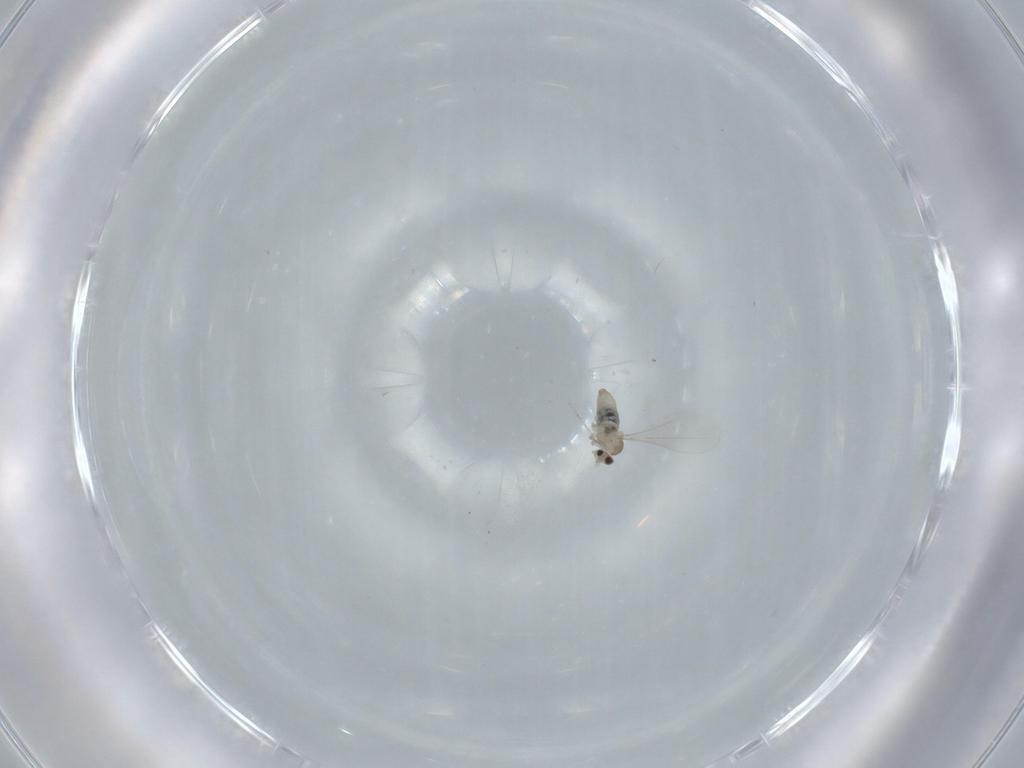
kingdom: Animalia
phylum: Arthropoda
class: Insecta
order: Diptera
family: Cecidomyiidae
